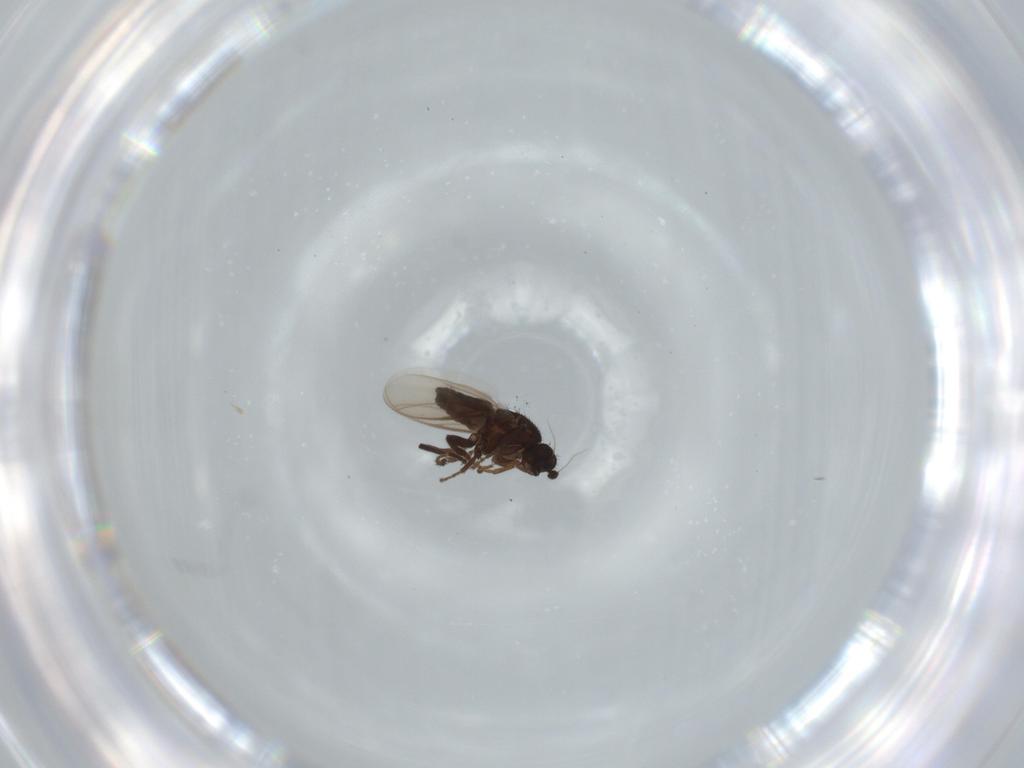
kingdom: Animalia
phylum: Arthropoda
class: Insecta
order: Diptera
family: Sphaeroceridae
